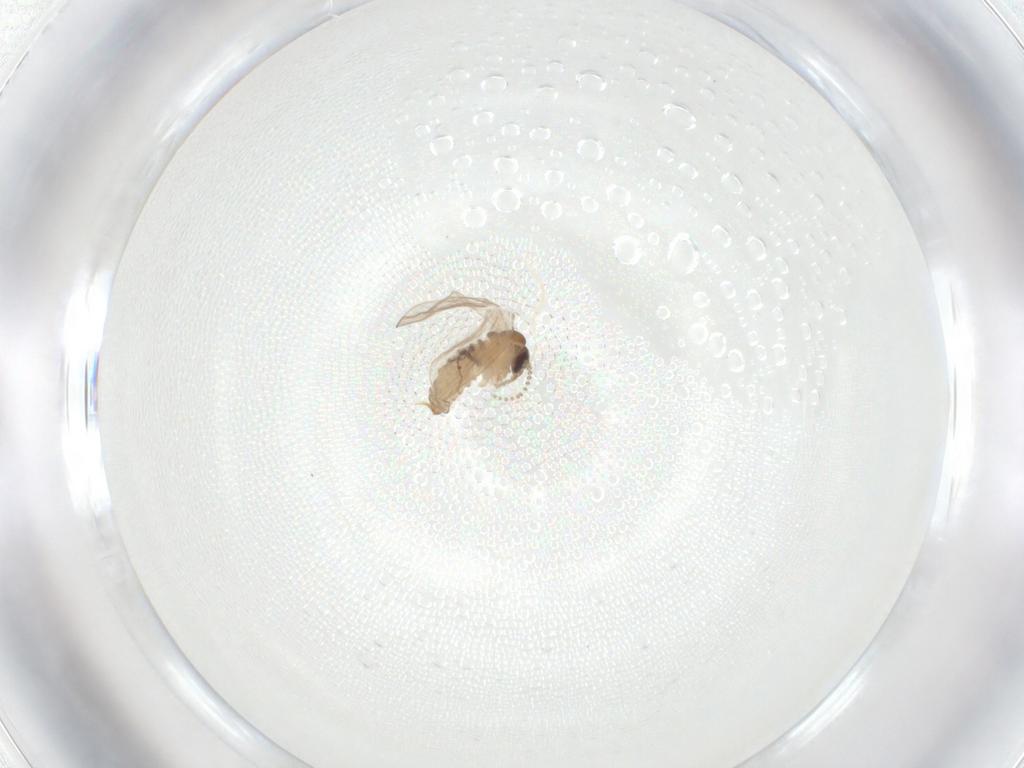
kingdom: Animalia
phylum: Arthropoda
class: Insecta
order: Diptera
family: Psychodidae
